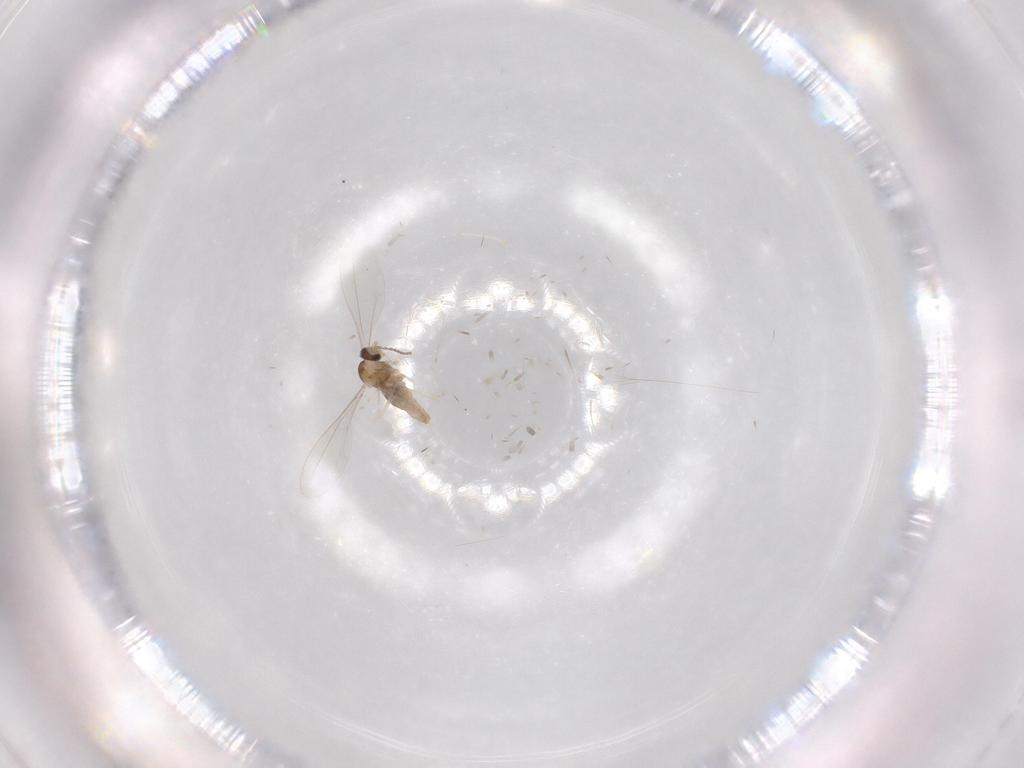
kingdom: Animalia
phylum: Arthropoda
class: Insecta
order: Diptera
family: Cecidomyiidae
